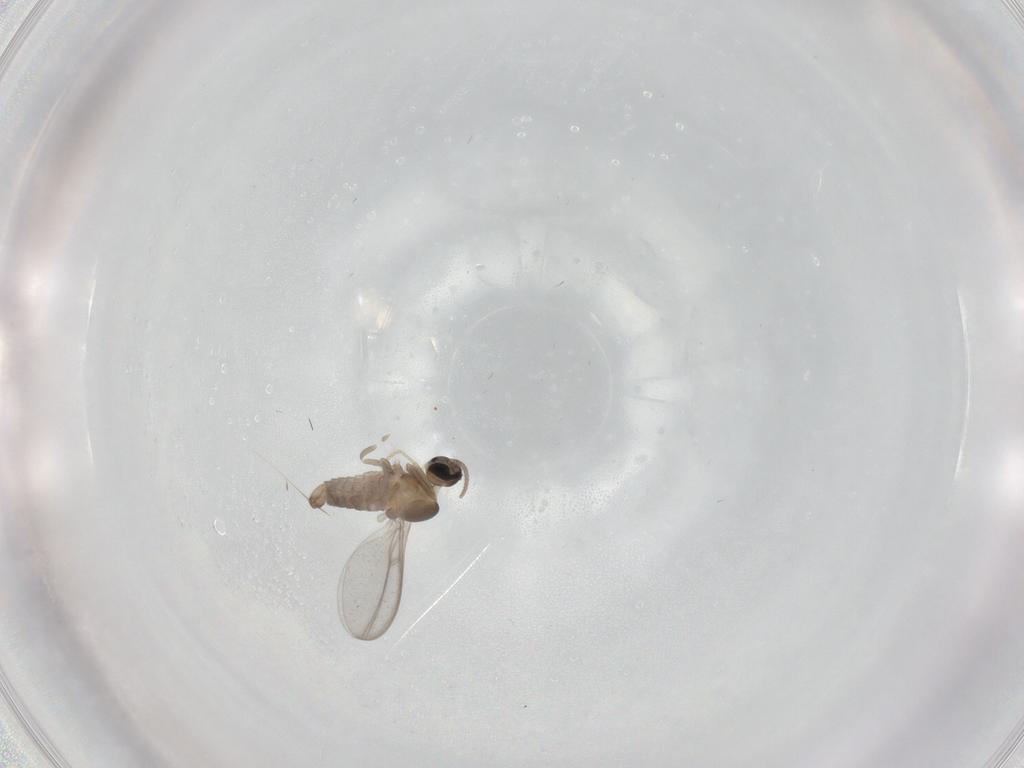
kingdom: Animalia
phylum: Arthropoda
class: Insecta
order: Diptera
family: Cecidomyiidae
